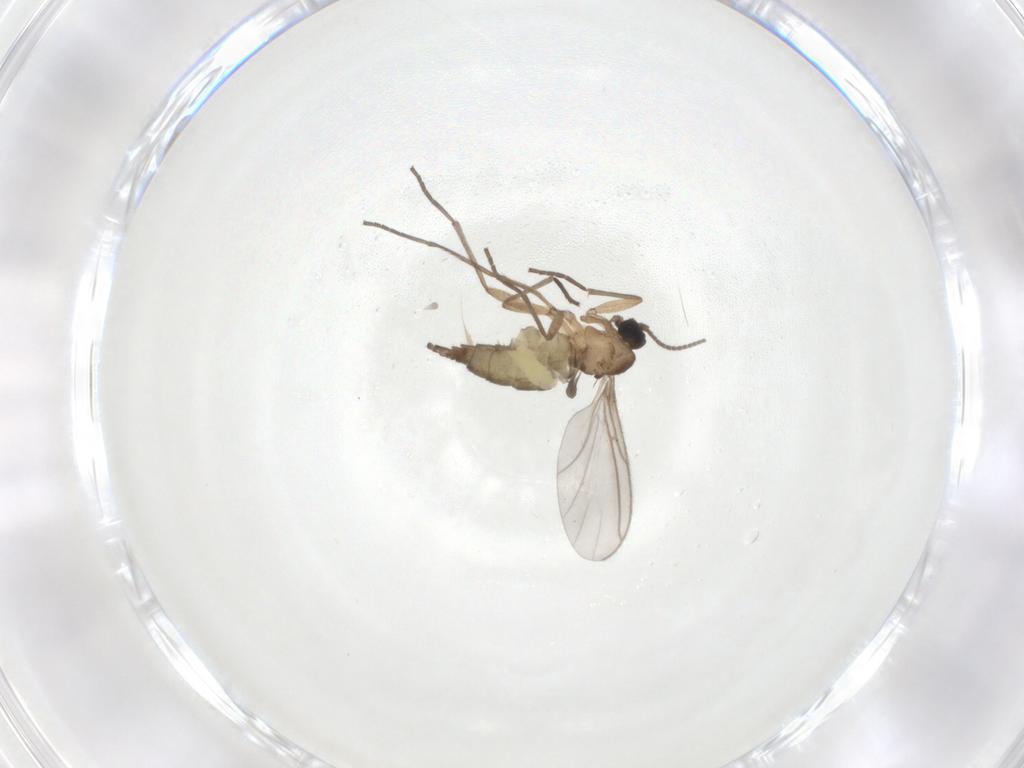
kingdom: Animalia
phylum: Arthropoda
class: Insecta
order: Diptera
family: Sciaridae
